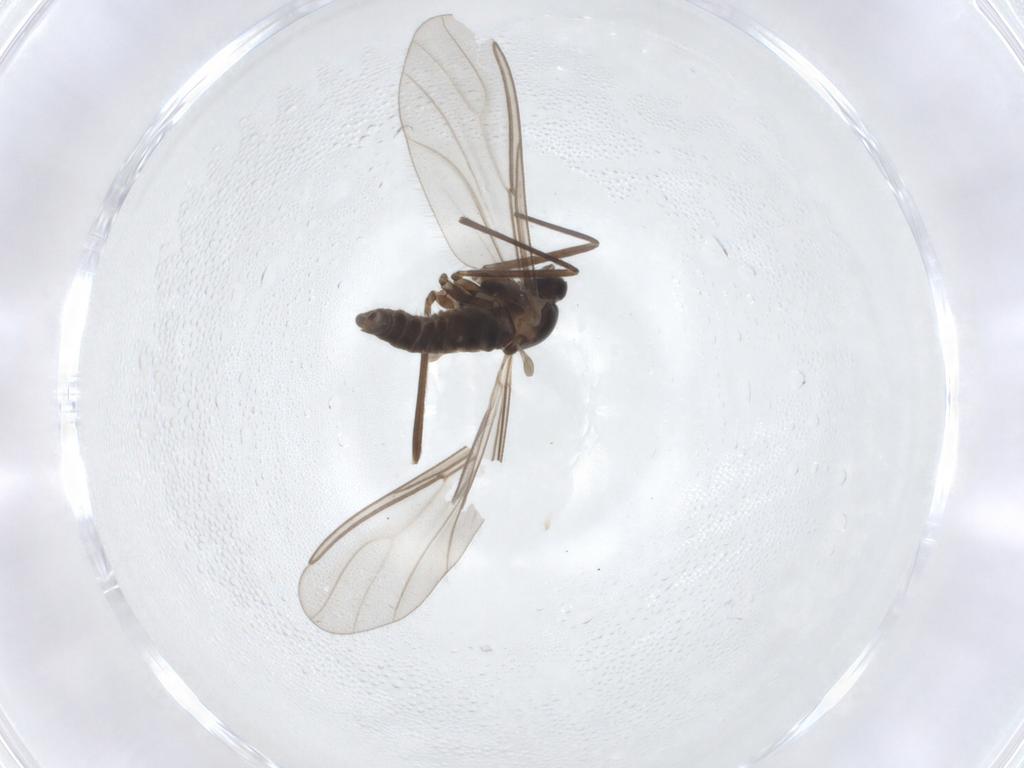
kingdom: Animalia
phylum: Arthropoda
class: Insecta
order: Diptera
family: Cecidomyiidae
